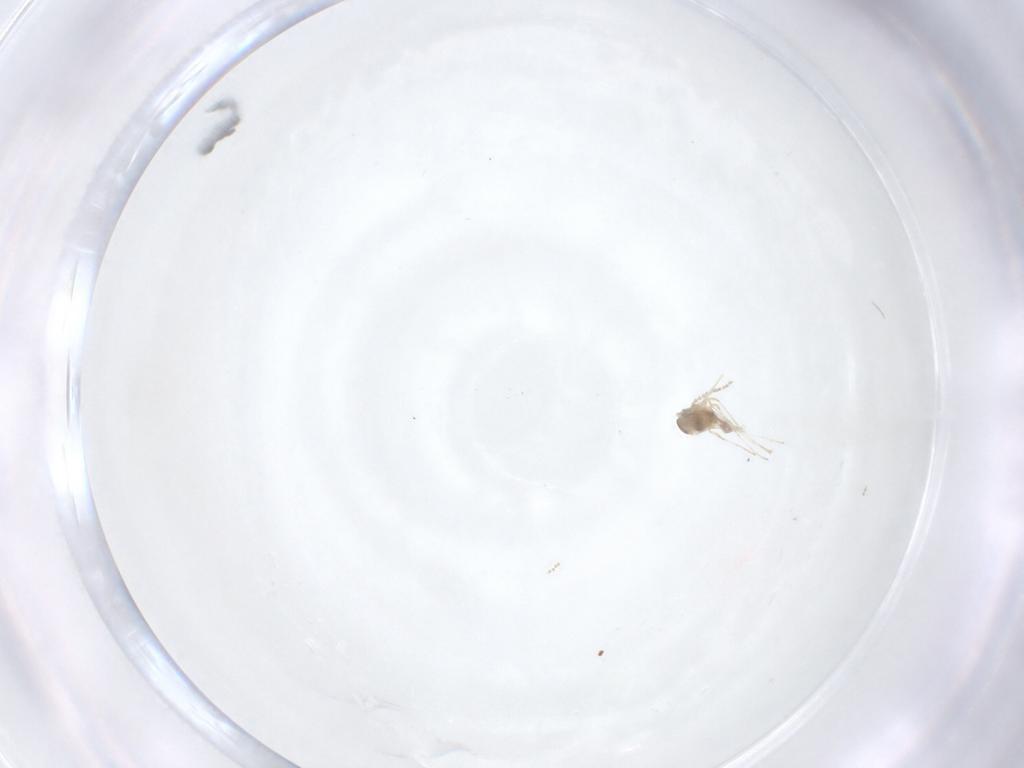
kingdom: Animalia
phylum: Arthropoda
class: Insecta
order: Diptera
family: Cecidomyiidae
